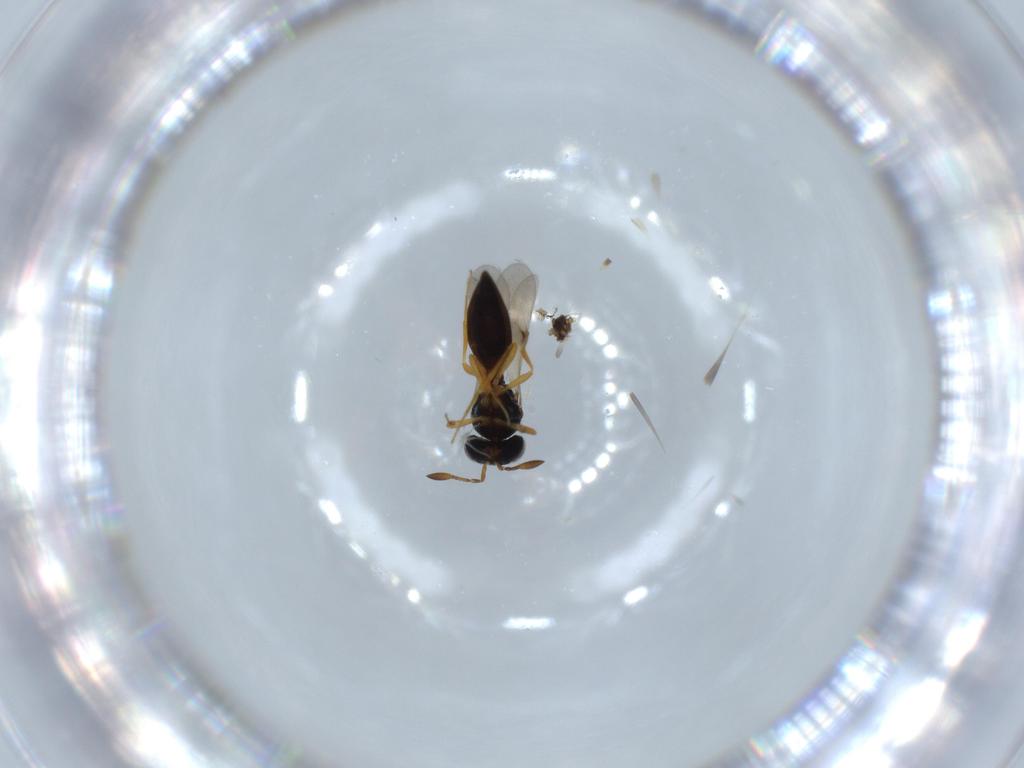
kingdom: Animalia
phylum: Arthropoda
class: Insecta
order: Hymenoptera
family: Scelionidae
